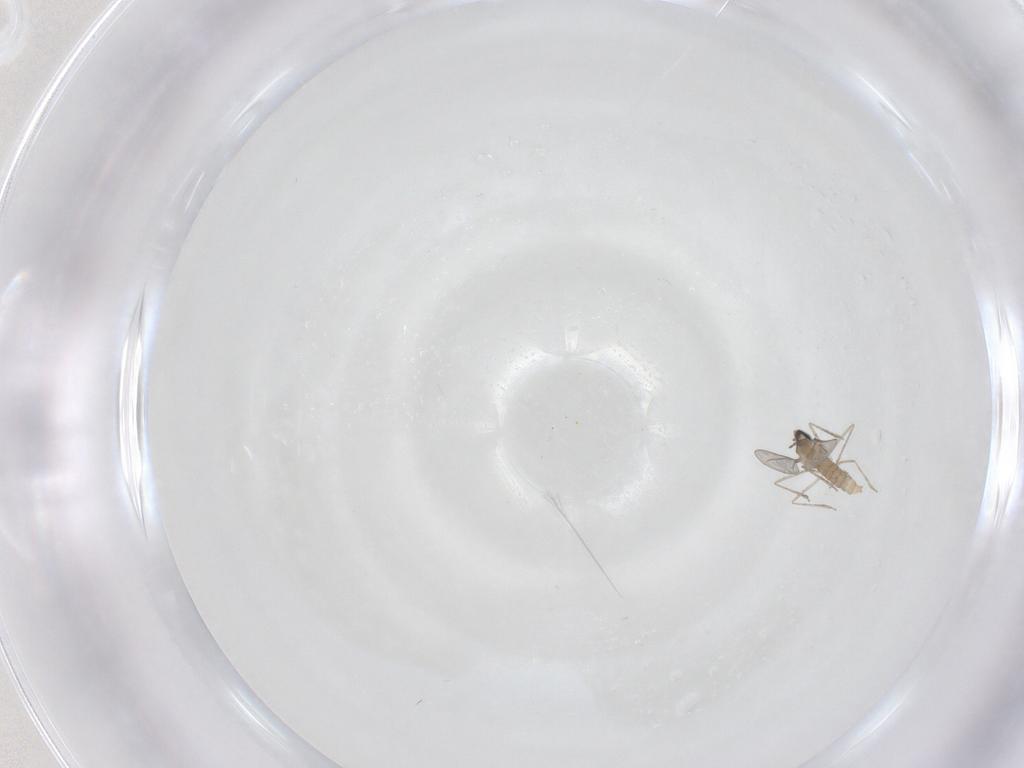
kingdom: Animalia
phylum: Arthropoda
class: Insecta
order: Diptera
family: Cecidomyiidae
